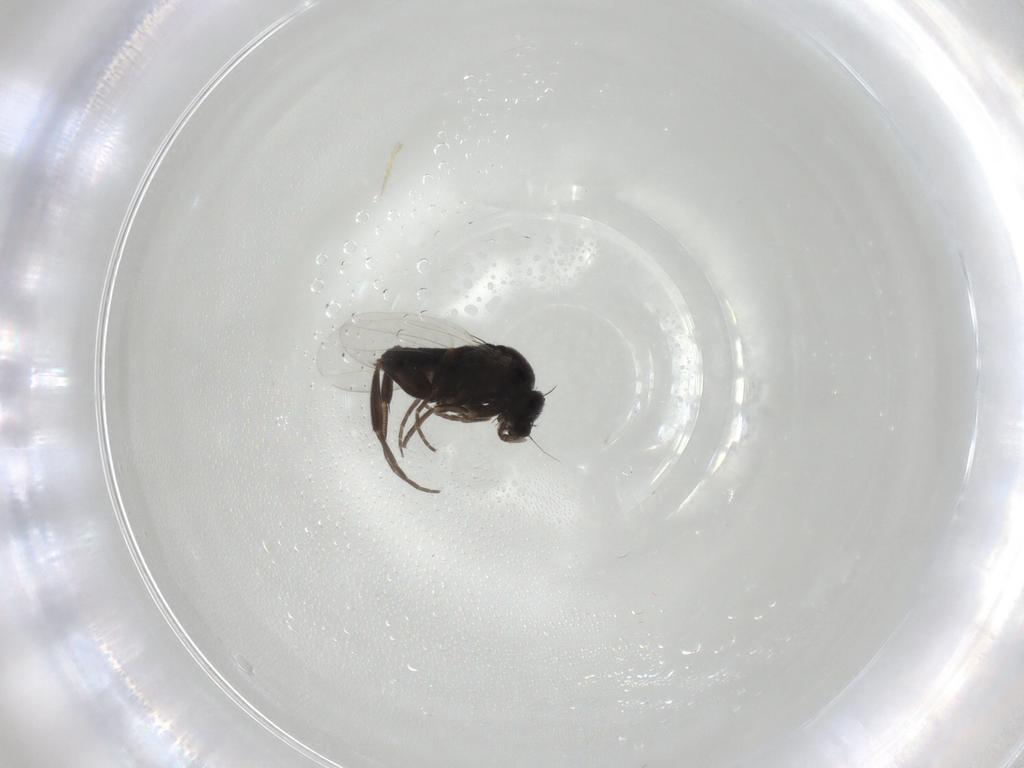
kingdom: Animalia
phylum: Arthropoda
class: Insecta
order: Diptera
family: Phoridae
